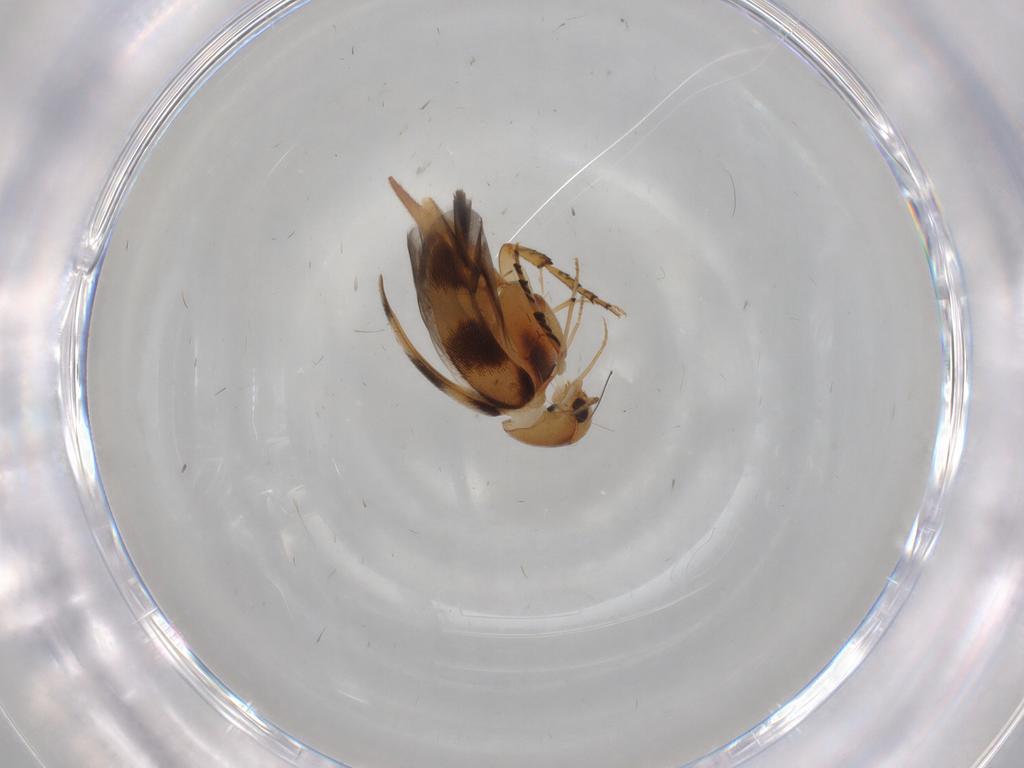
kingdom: Animalia
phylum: Arthropoda
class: Insecta
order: Coleoptera
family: Mordellidae
